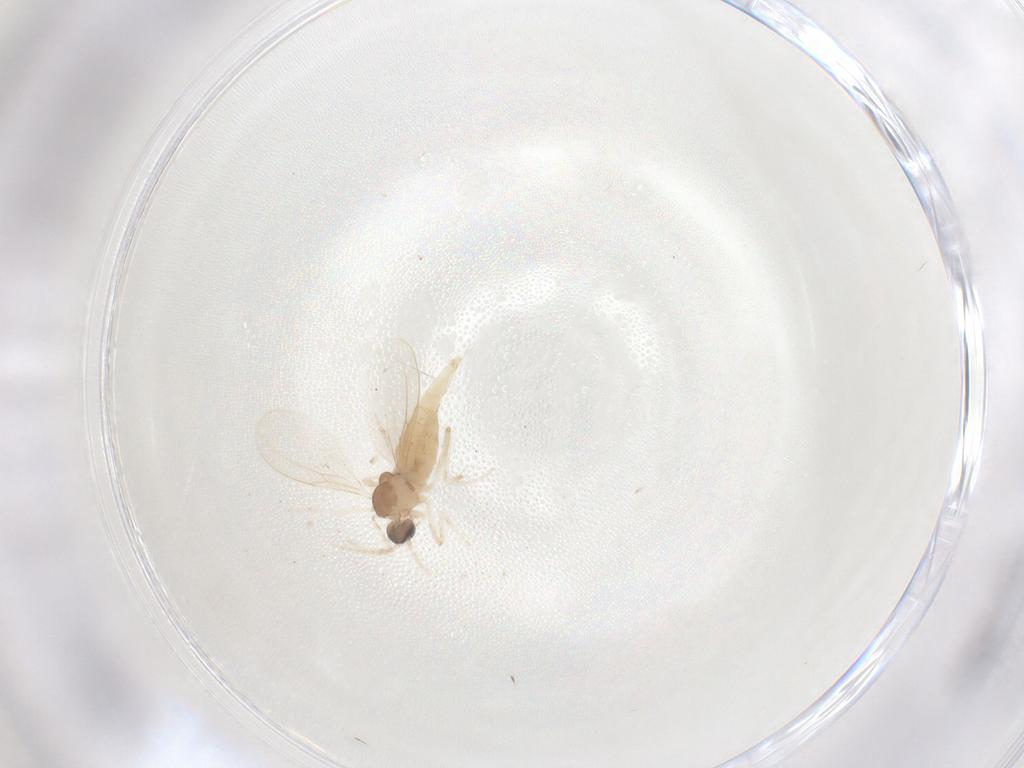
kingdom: Animalia
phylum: Arthropoda
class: Insecta
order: Diptera
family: Cecidomyiidae
